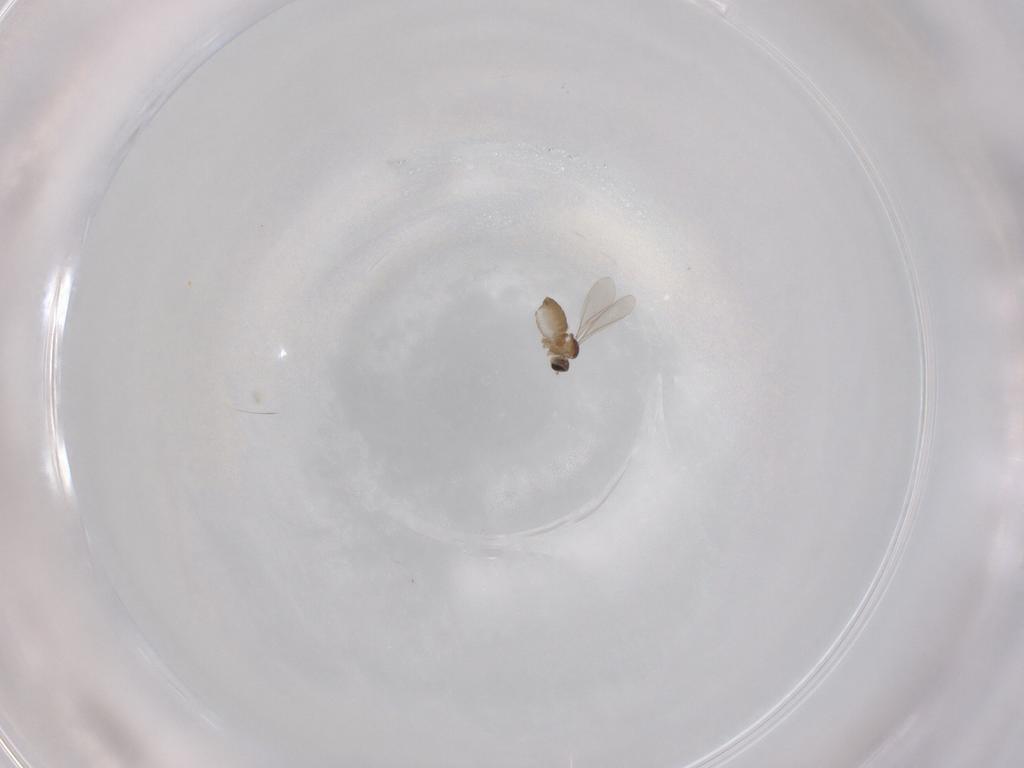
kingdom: Animalia
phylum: Arthropoda
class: Insecta
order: Diptera
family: Cecidomyiidae
